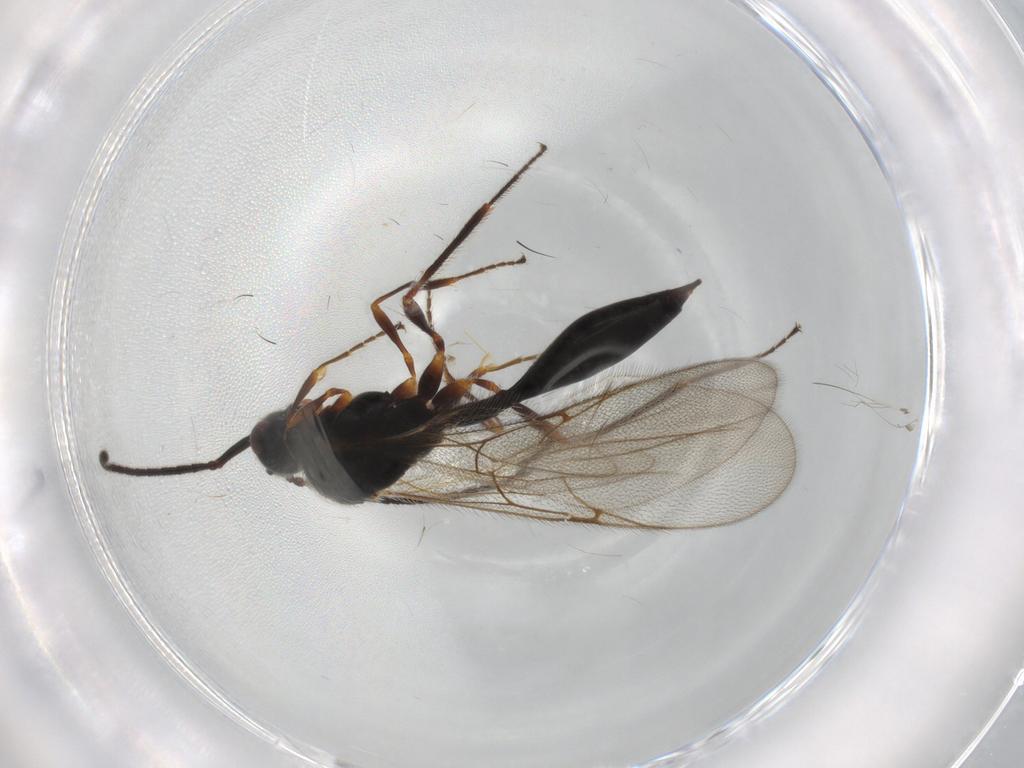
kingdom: Animalia
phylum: Arthropoda
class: Insecta
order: Hymenoptera
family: Diapriidae
